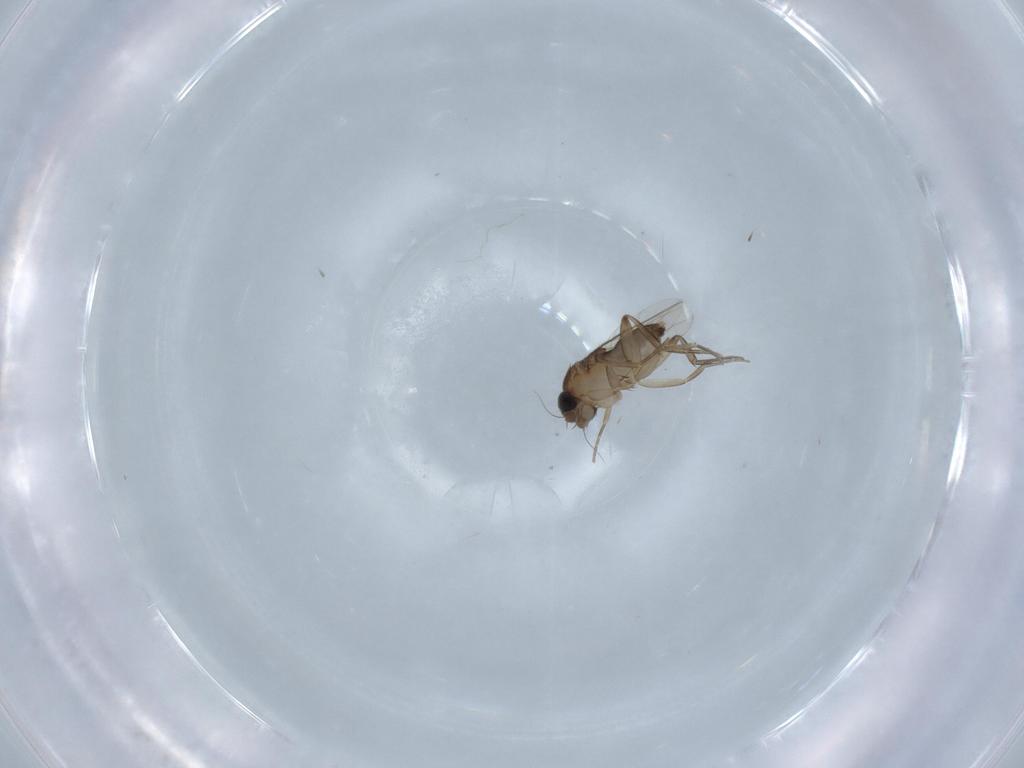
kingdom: Animalia
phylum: Arthropoda
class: Insecta
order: Diptera
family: Phoridae
